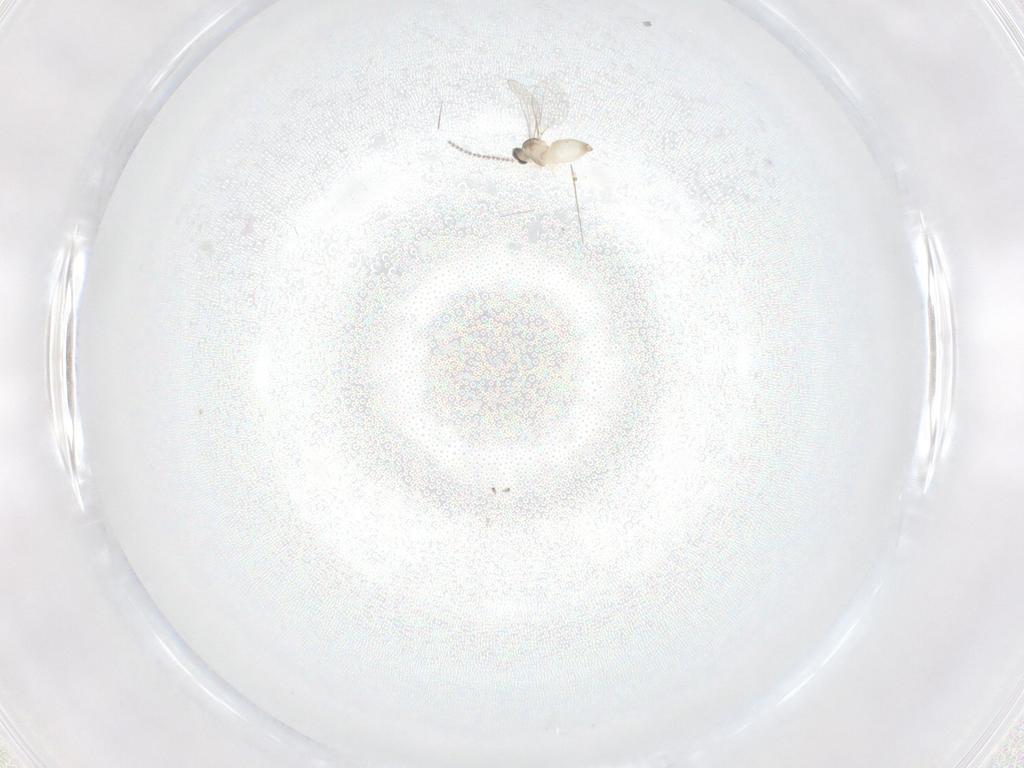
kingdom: Animalia
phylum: Arthropoda
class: Insecta
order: Diptera
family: Cecidomyiidae
